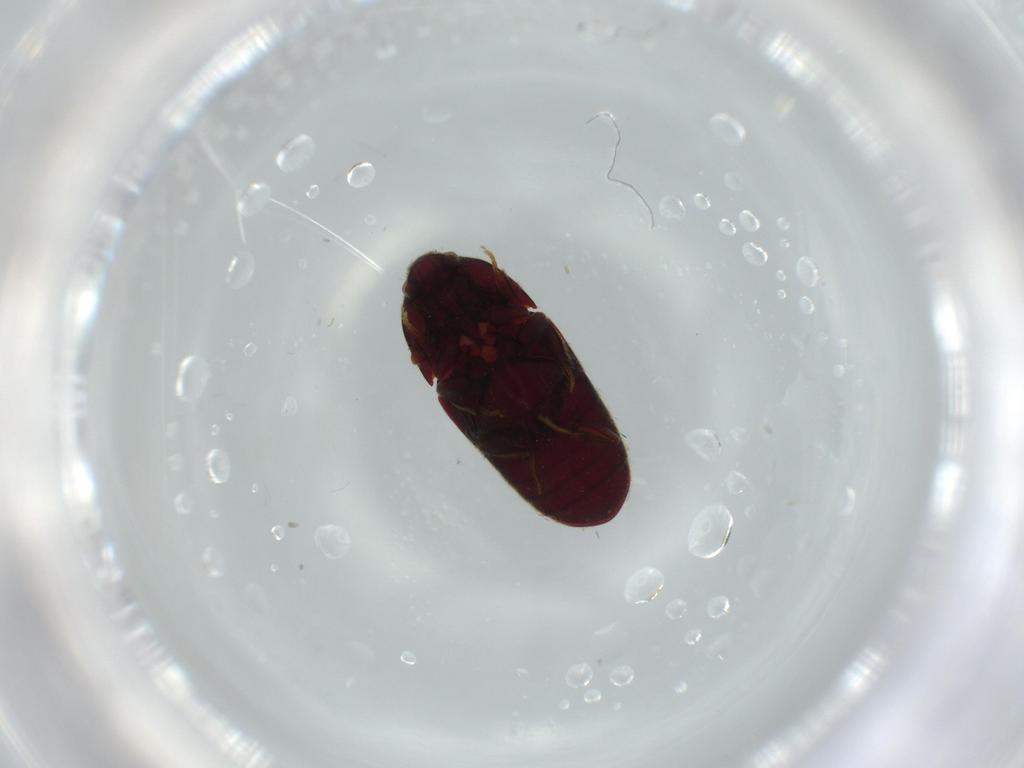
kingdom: Animalia
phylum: Arthropoda
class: Insecta
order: Coleoptera
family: Throscidae
